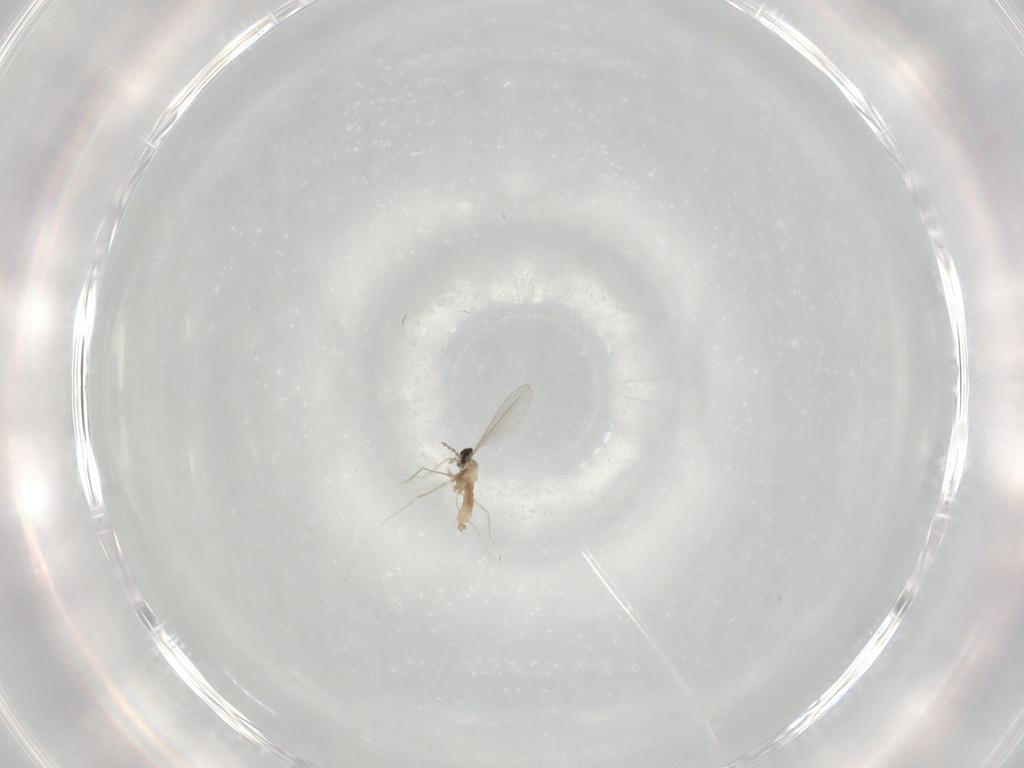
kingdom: Animalia
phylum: Arthropoda
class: Insecta
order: Diptera
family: Cecidomyiidae
